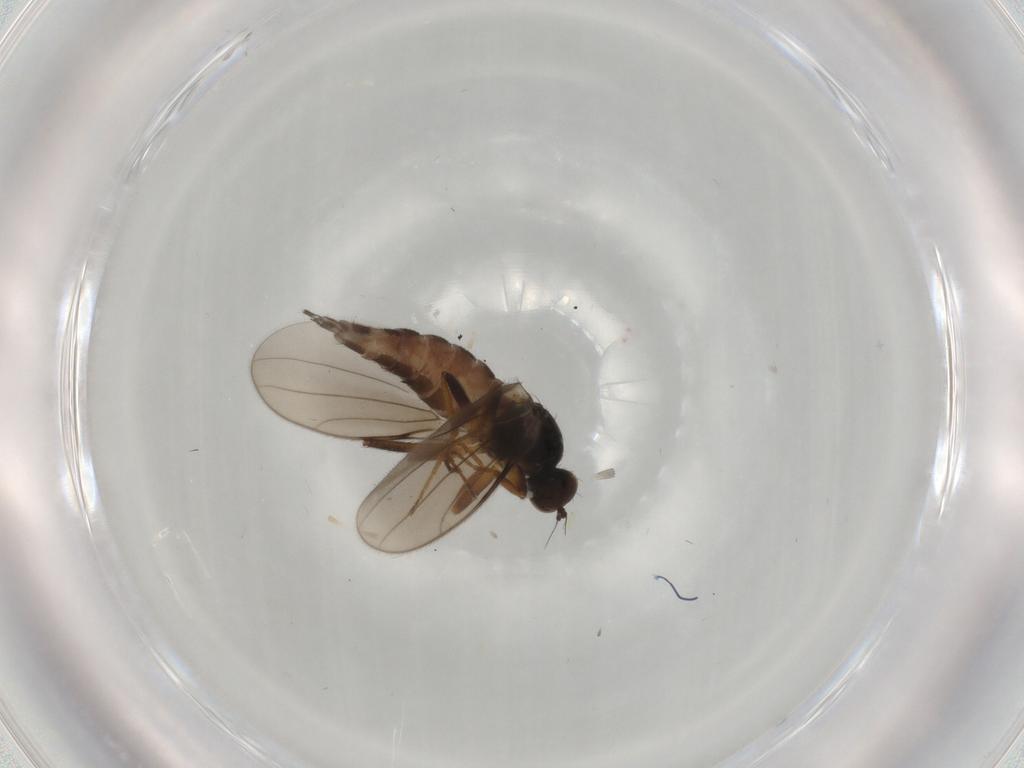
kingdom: Animalia
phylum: Arthropoda
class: Insecta
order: Diptera
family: Hybotidae
